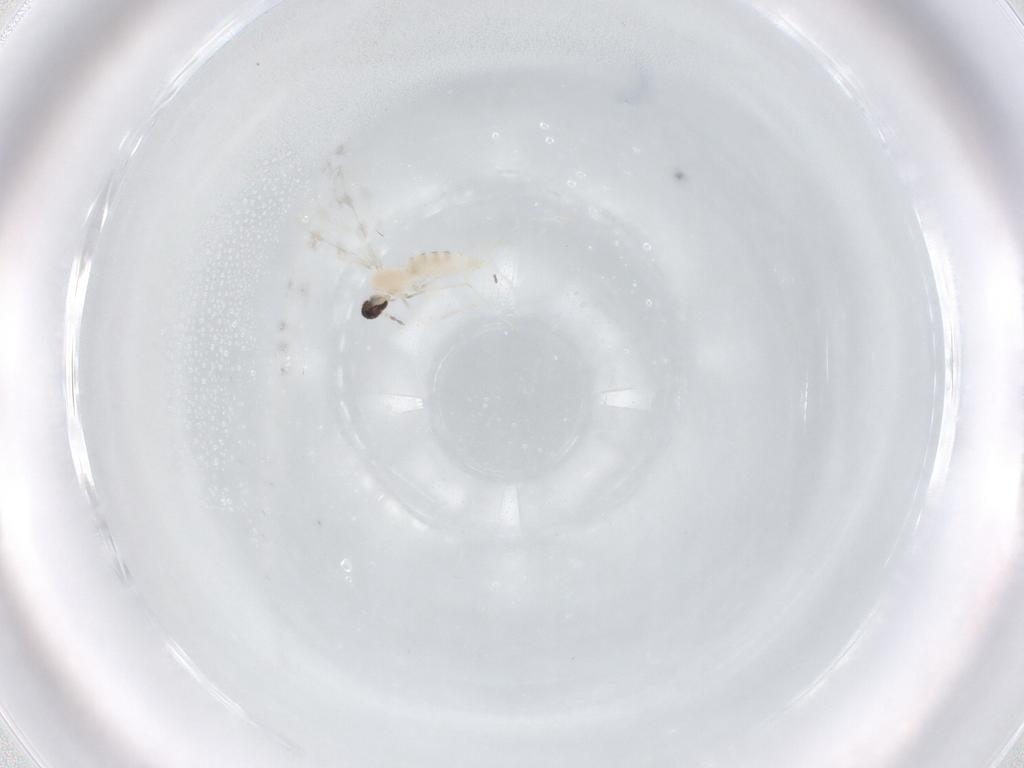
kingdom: Animalia
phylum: Arthropoda
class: Insecta
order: Diptera
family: Cecidomyiidae
